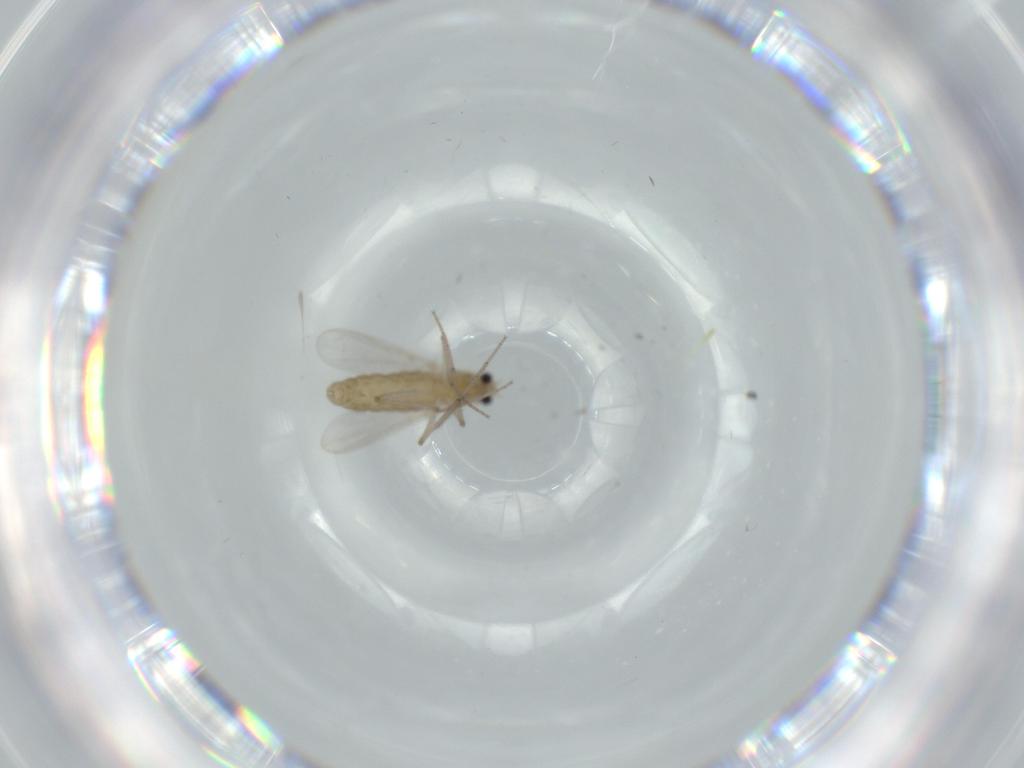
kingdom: Animalia
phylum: Arthropoda
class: Insecta
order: Diptera
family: Chironomidae
